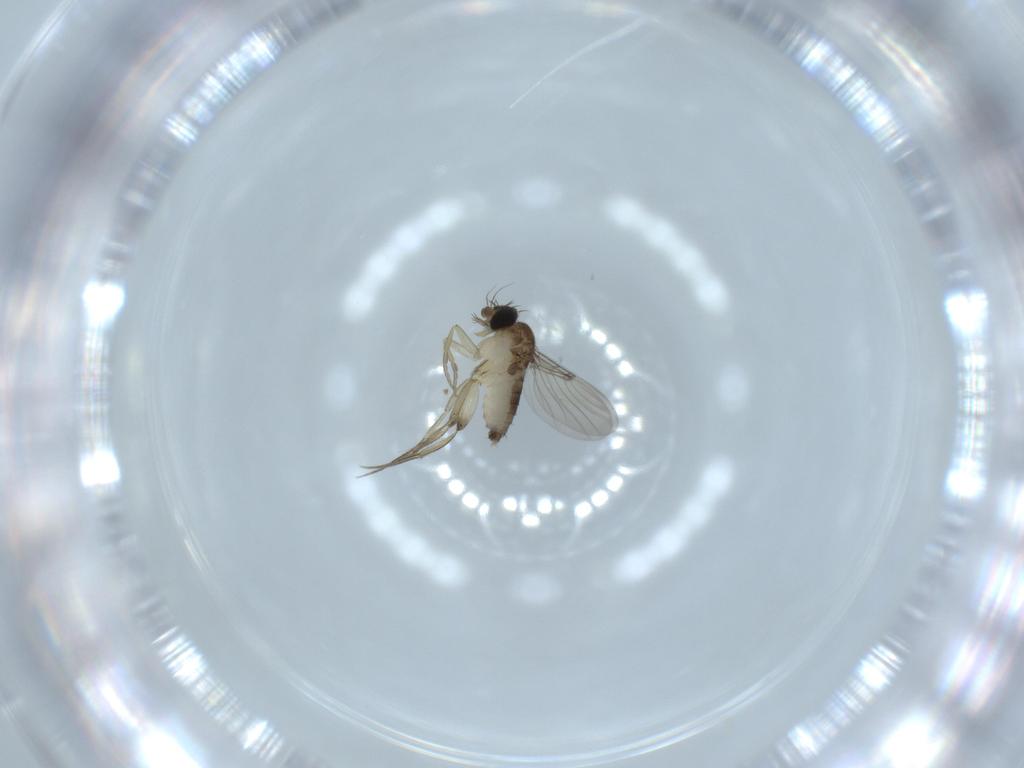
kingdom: Animalia
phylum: Arthropoda
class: Insecta
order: Diptera
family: Phoridae
